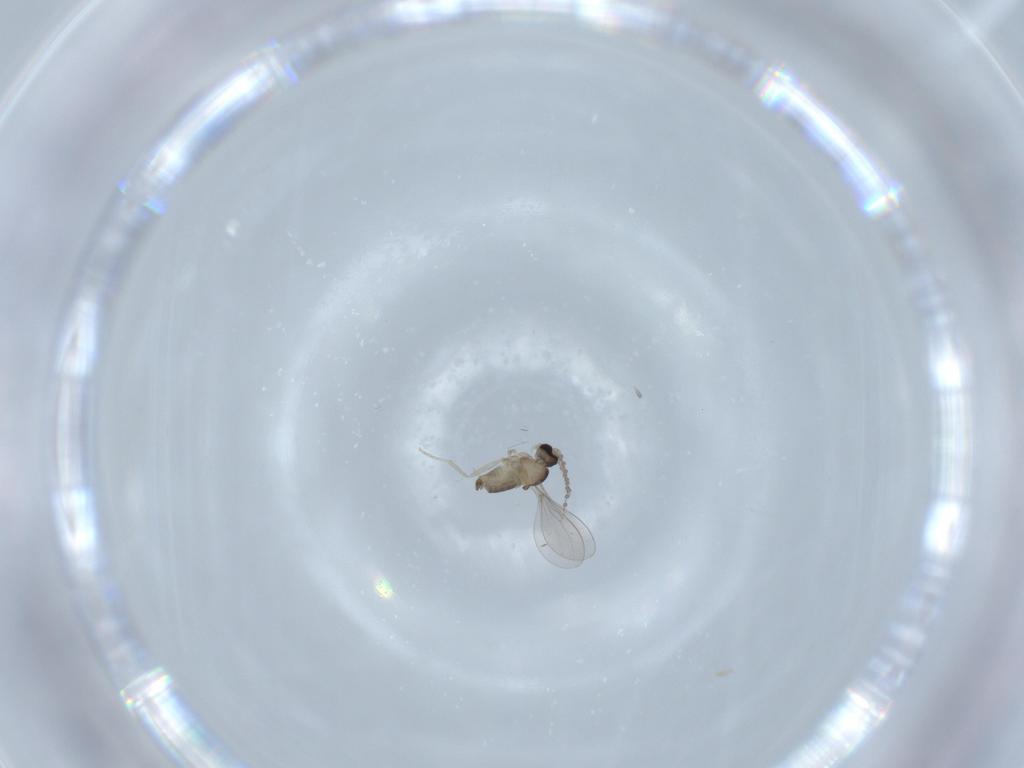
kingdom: Animalia
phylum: Arthropoda
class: Insecta
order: Diptera
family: Cecidomyiidae
